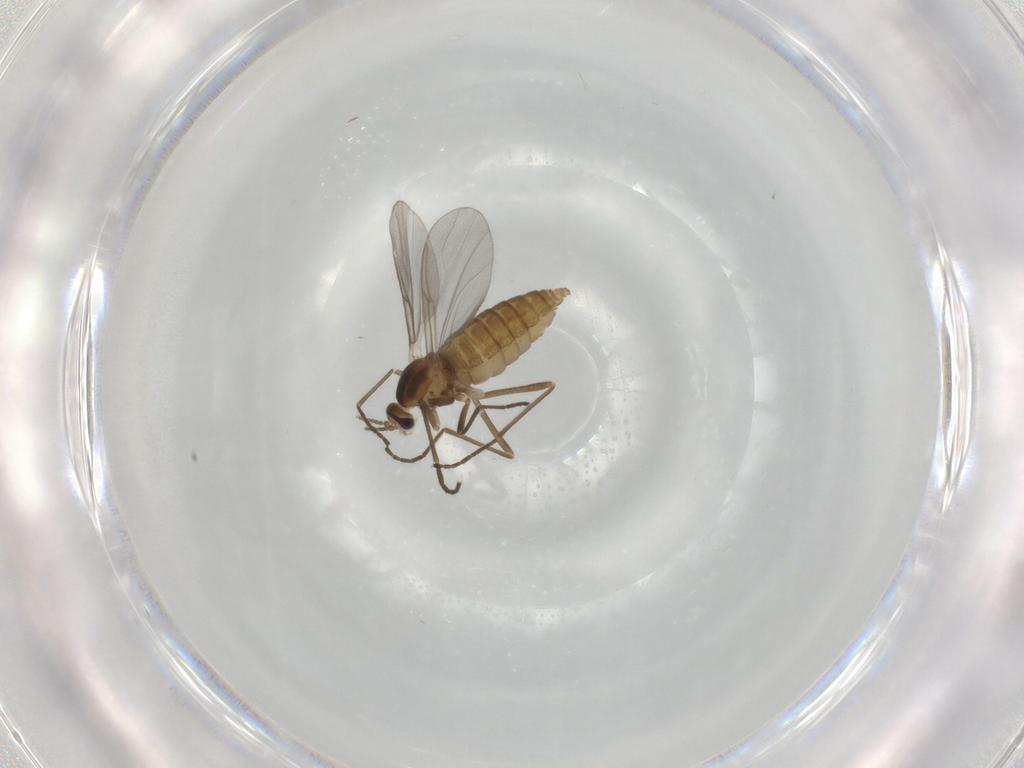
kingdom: Animalia
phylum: Arthropoda
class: Insecta
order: Diptera
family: Cecidomyiidae
